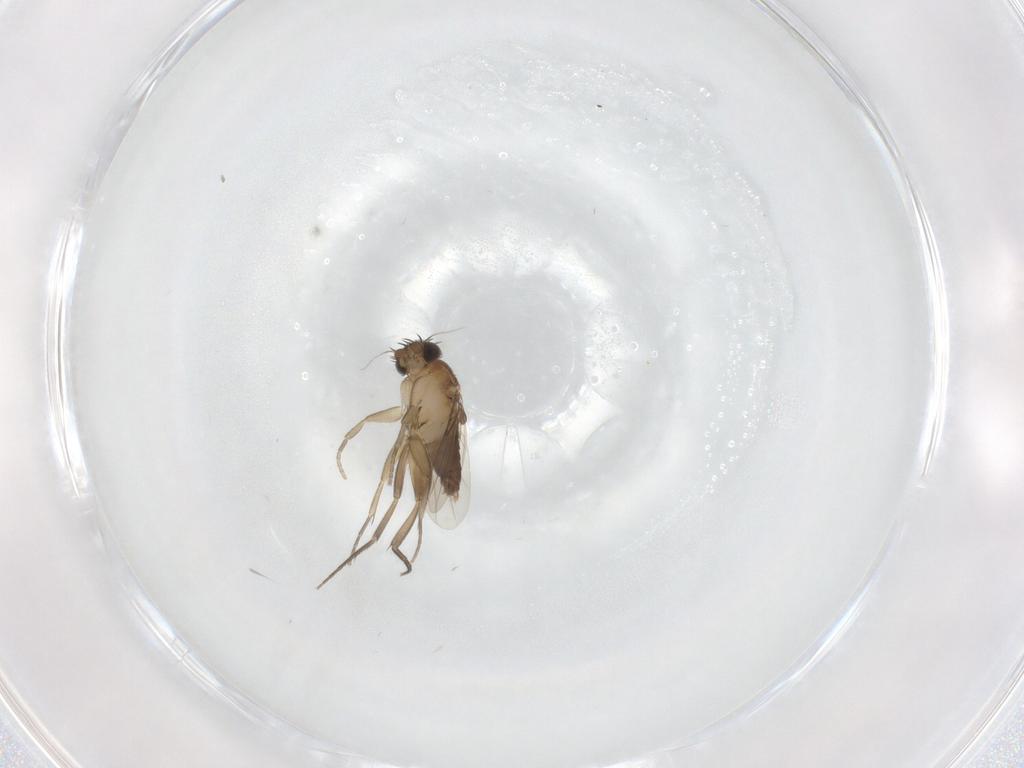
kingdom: Animalia
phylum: Arthropoda
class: Insecta
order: Diptera
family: Phoridae
